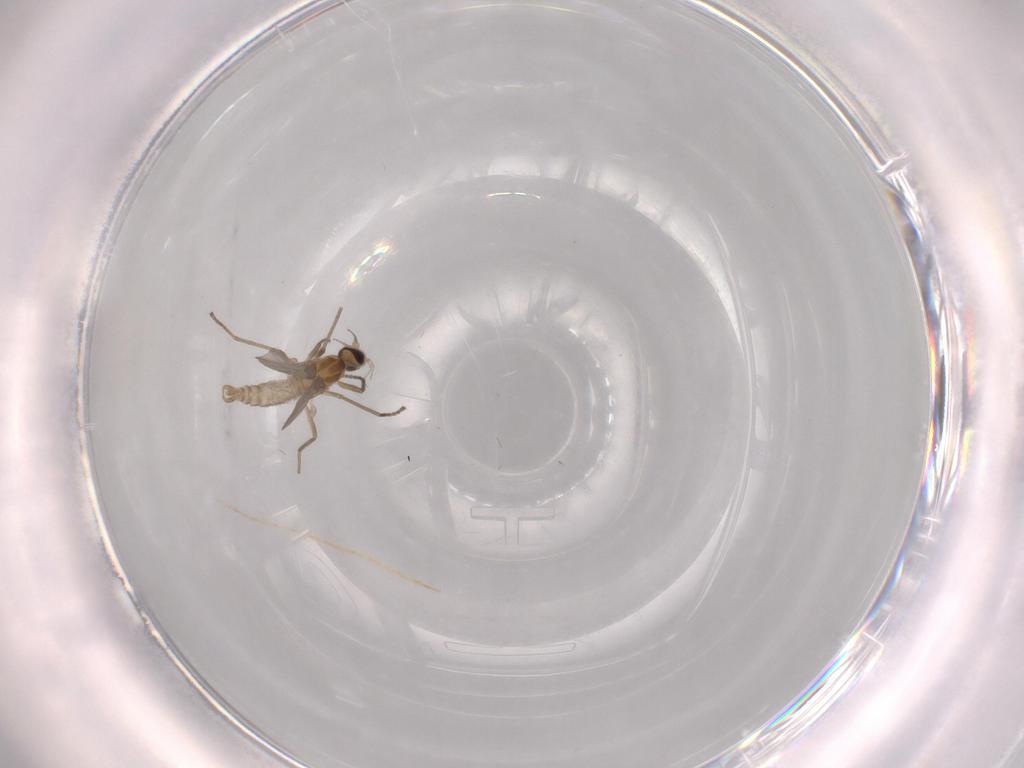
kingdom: Animalia
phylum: Arthropoda
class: Insecta
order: Diptera
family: Cecidomyiidae
